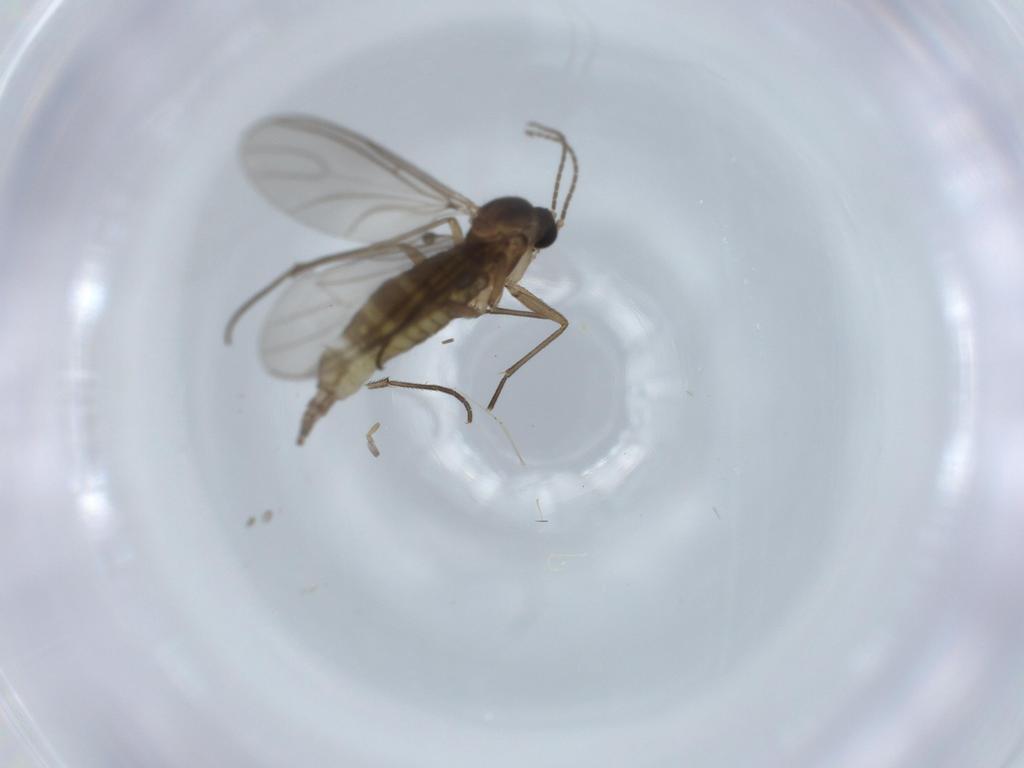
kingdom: Animalia
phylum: Arthropoda
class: Insecta
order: Diptera
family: Sciaridae
